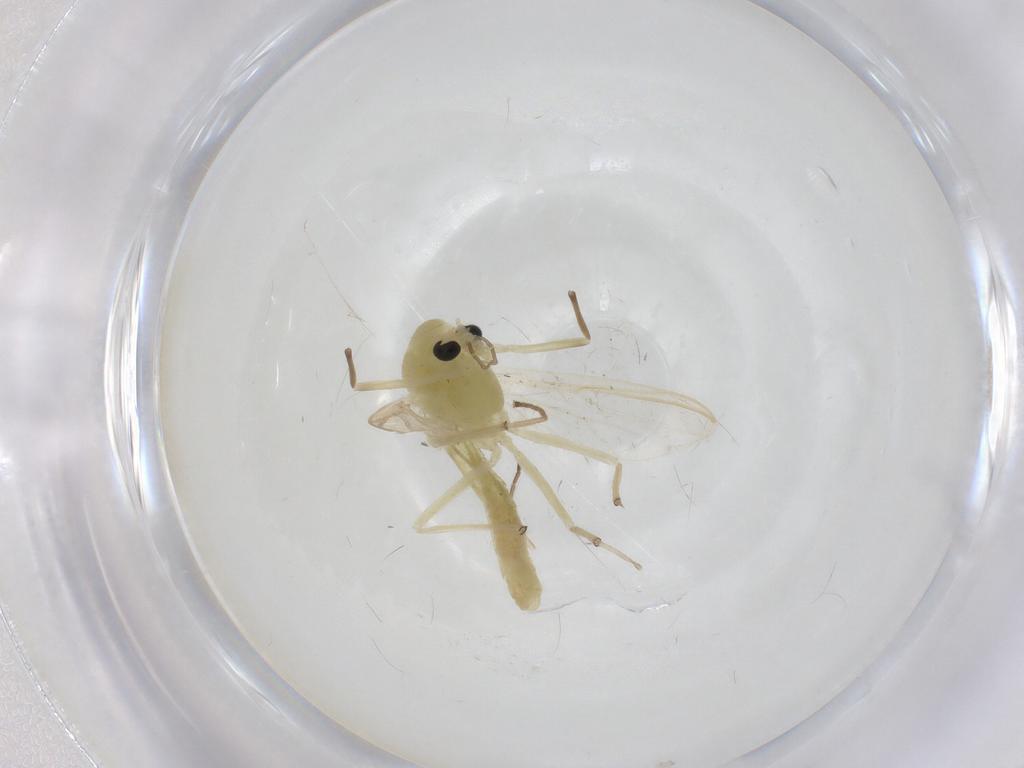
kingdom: Animalia
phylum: Arthropoda
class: Insecta
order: Diptera
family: Chironomidae
